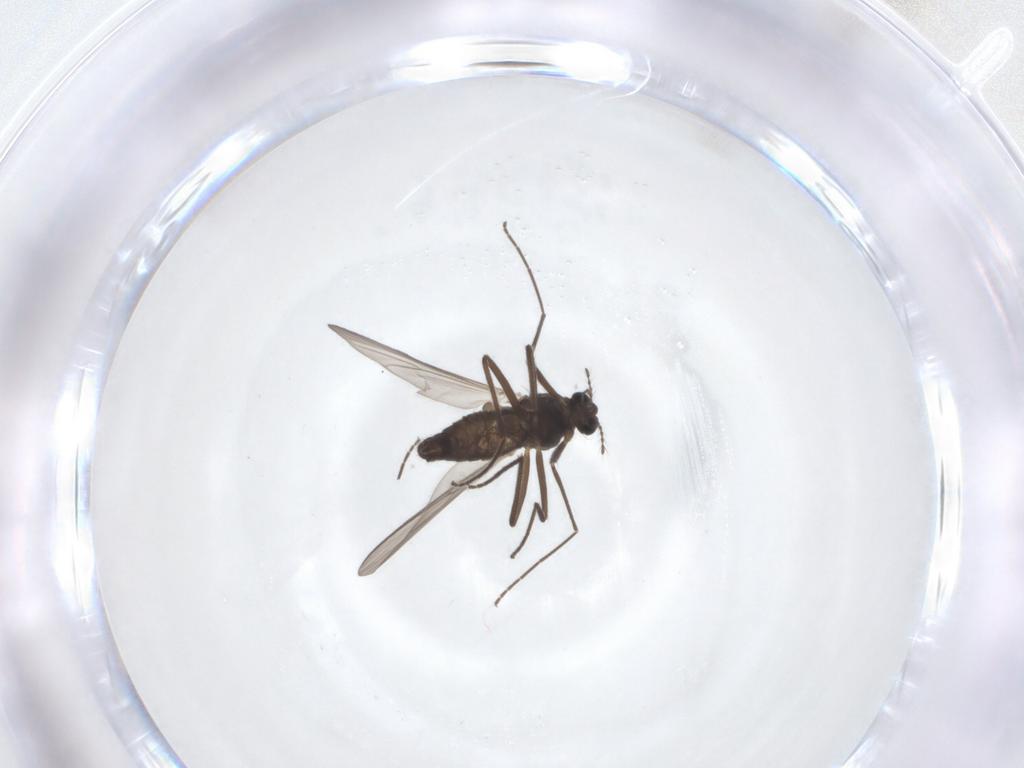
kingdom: Animalia
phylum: Arthropoda
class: Insecta
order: Diptera
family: Chironomidae
